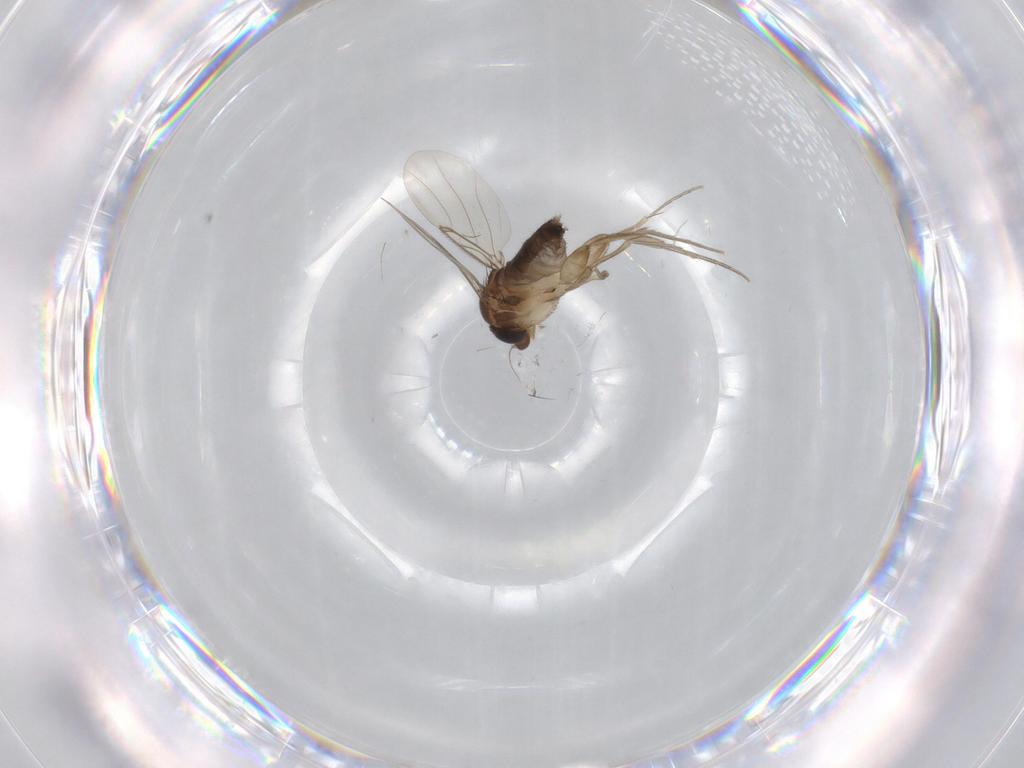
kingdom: Animalia
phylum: Arthropoda
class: Insecta
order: Diptera
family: Phoridae
